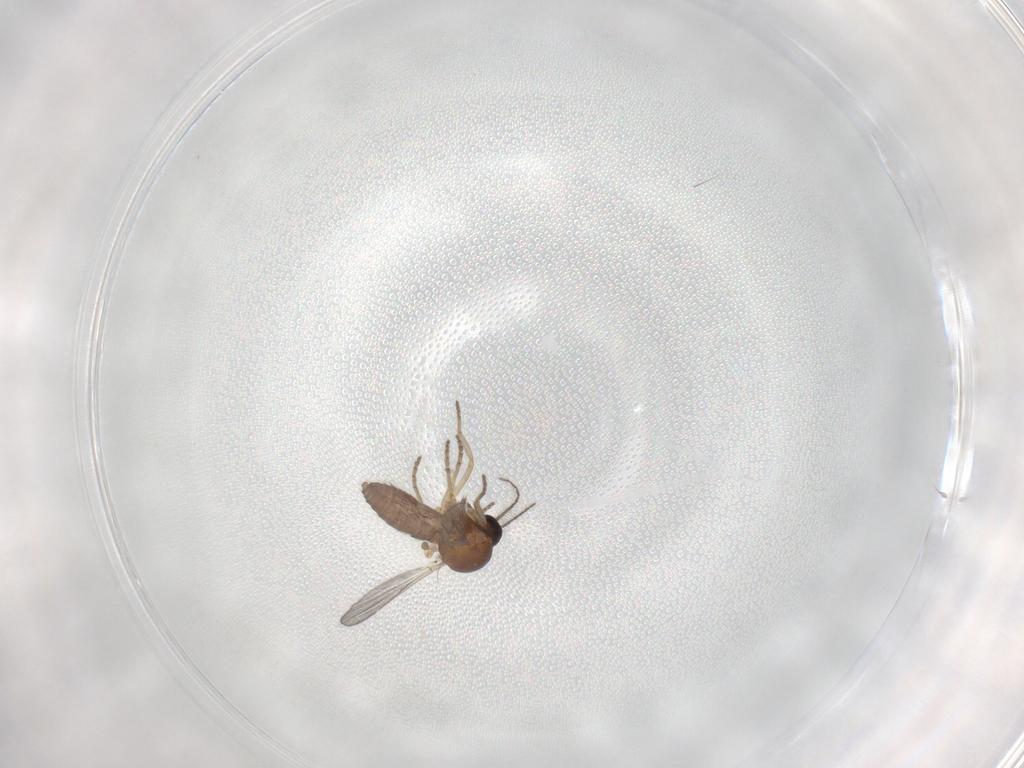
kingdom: Animalia
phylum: Arthropoda
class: Insecta
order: Diptera
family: Ceratopogonidae
